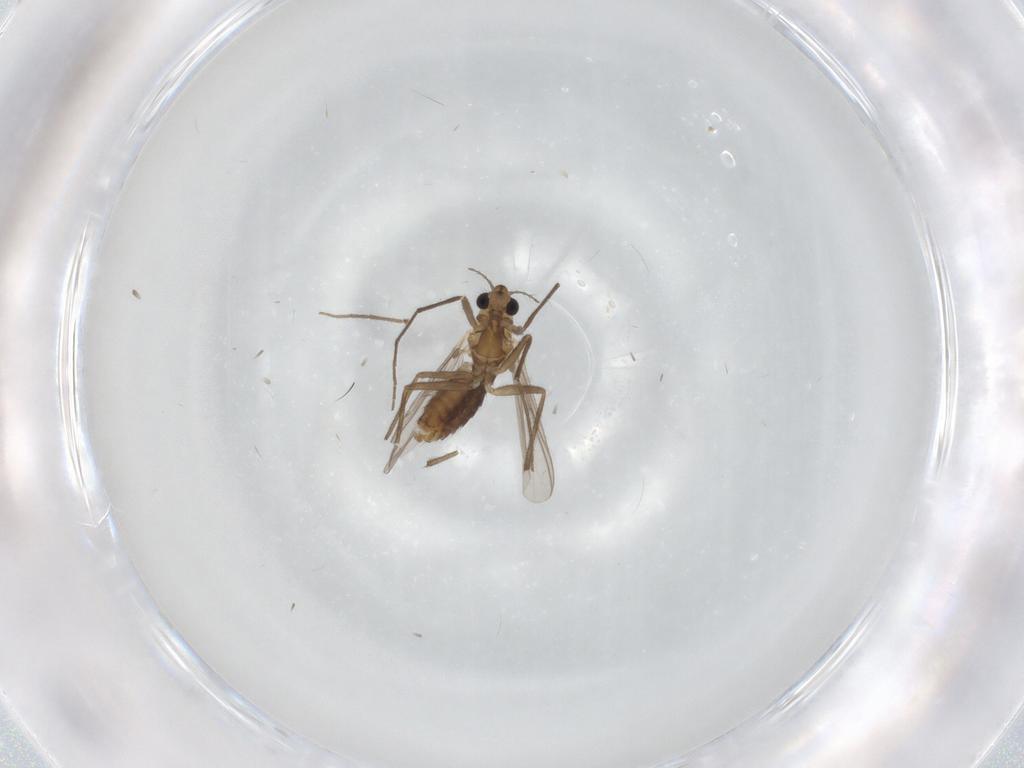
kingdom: Animalia
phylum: Arthropoda
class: Insecta
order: Diptera
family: Chironomidae
